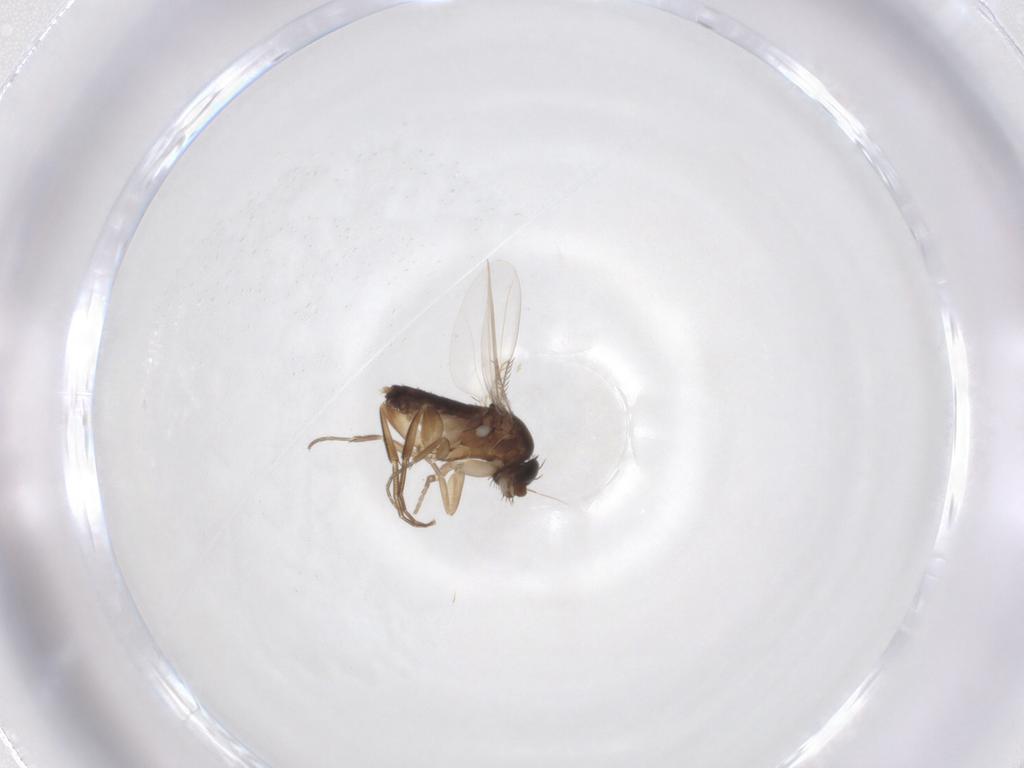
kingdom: Animalia
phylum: Arthropoda
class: Insecta
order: Diptera
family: Phoridae
